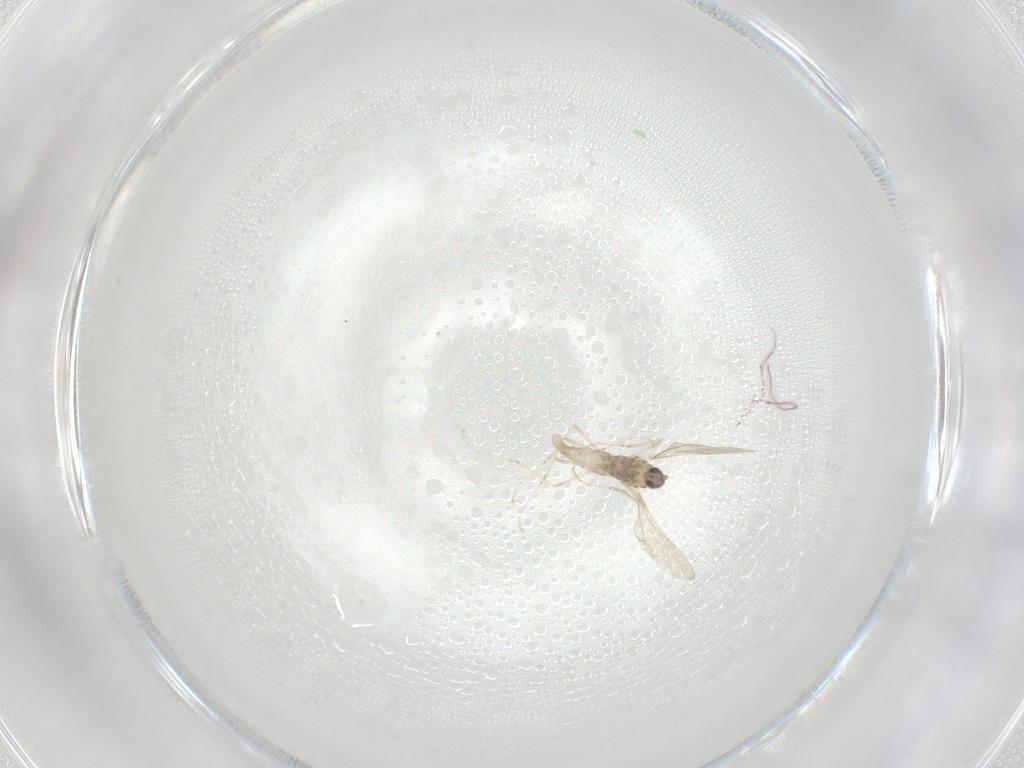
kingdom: Animalia
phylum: Arthropoda
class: Insecta
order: Diptera
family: Cecidomyiidae
